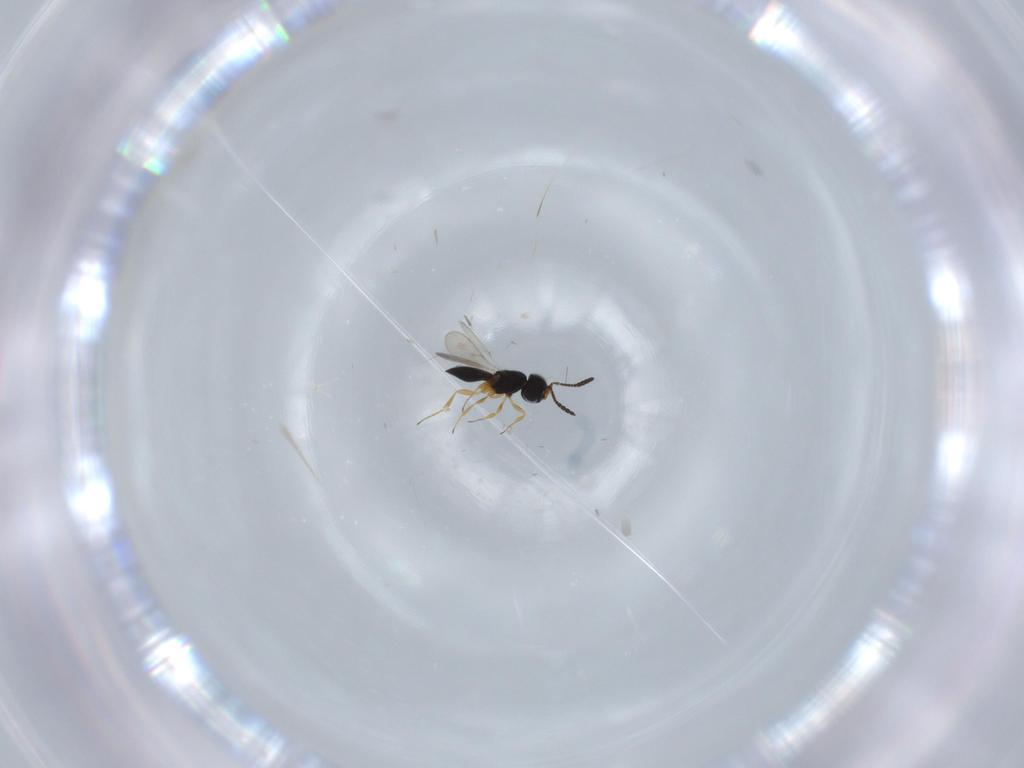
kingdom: Animalia
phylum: Arthropoda
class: Insecta
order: Hymenoptera
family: Scelionidae
